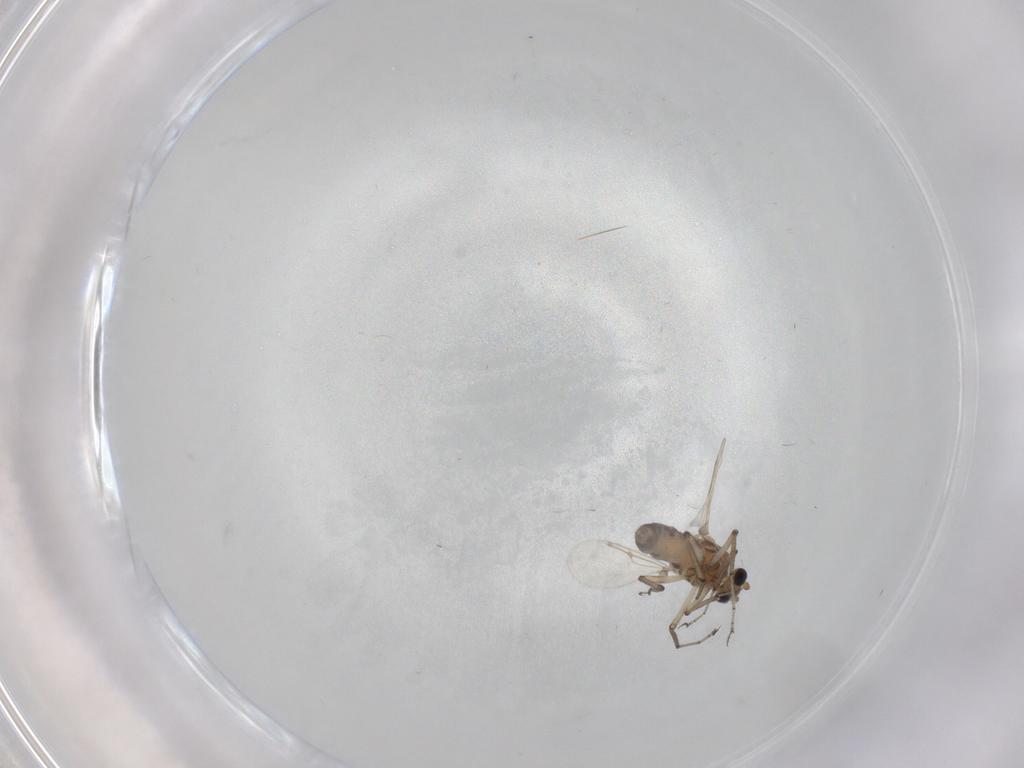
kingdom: Animalia
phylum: Arthropoda
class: Insecta
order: Diptera
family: Ceratopogonidae
